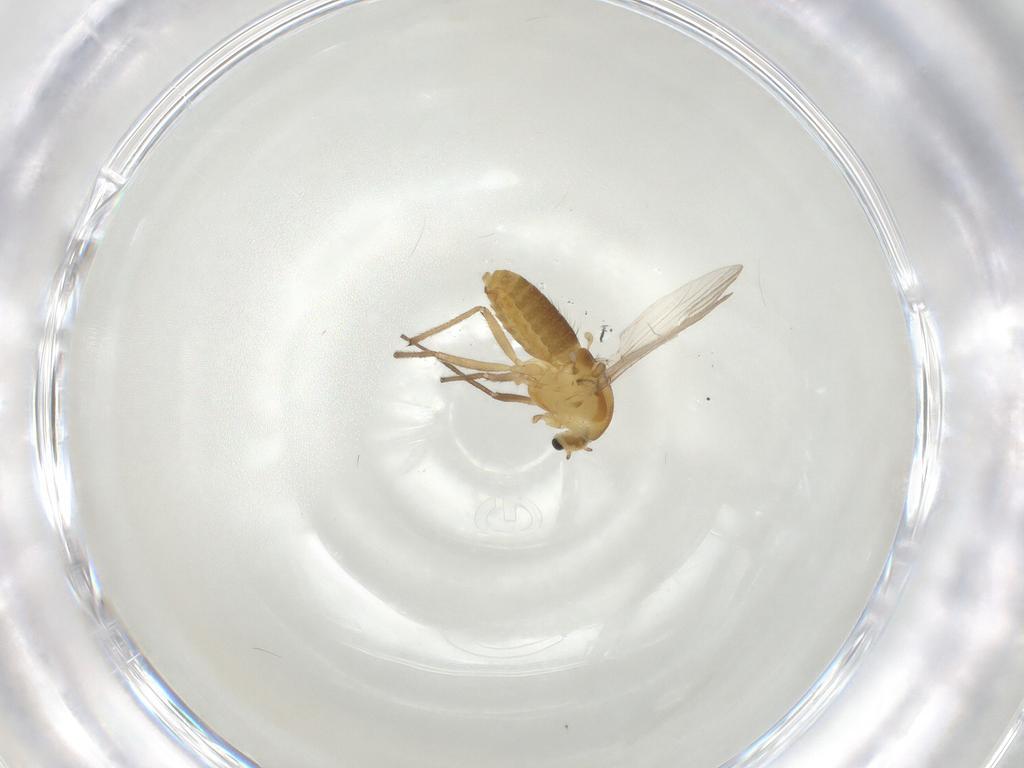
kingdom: Animalia
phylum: Arthropoda
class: Insecta
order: Diptera
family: Chironomidae
